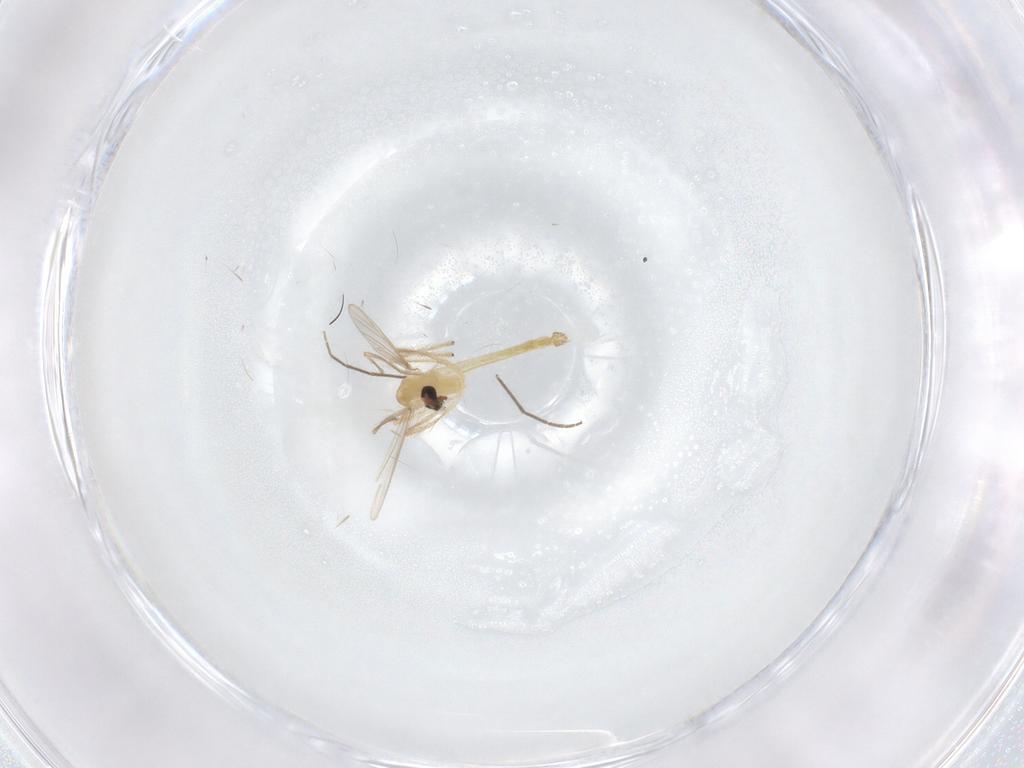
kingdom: Animalia
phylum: Arthropoda
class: Insecta
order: Diptera
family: Chironomidae
